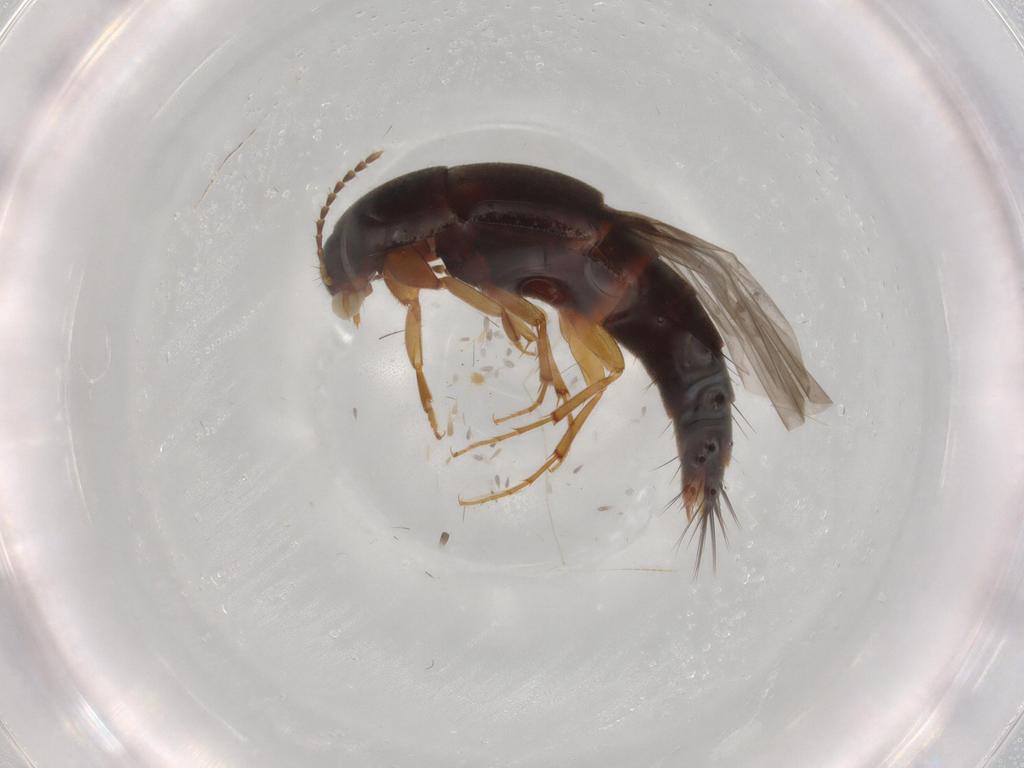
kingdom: Animalia
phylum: Arthropoda
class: Insecta
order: Coleoptera
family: Staphylinidae
